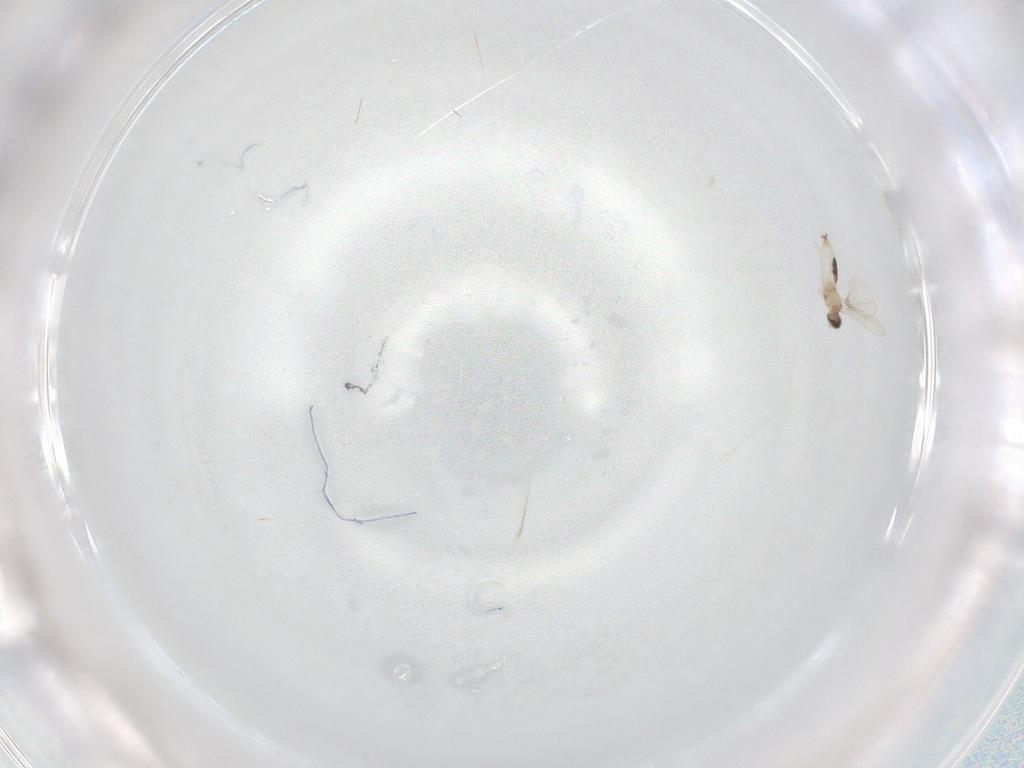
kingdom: Animalia
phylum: Arthropoda
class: Insecta
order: Diptera
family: Cecidomyiidae
